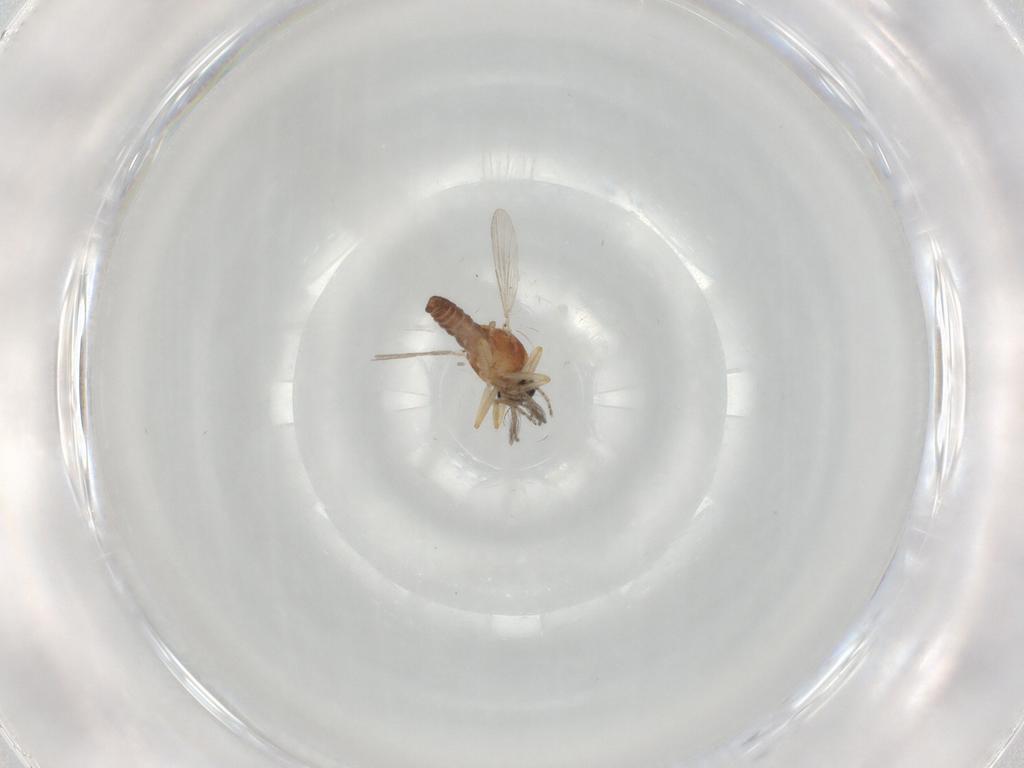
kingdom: Animalia
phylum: Arthropoda
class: Insecta
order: Diptera
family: Ceratopogonidae
